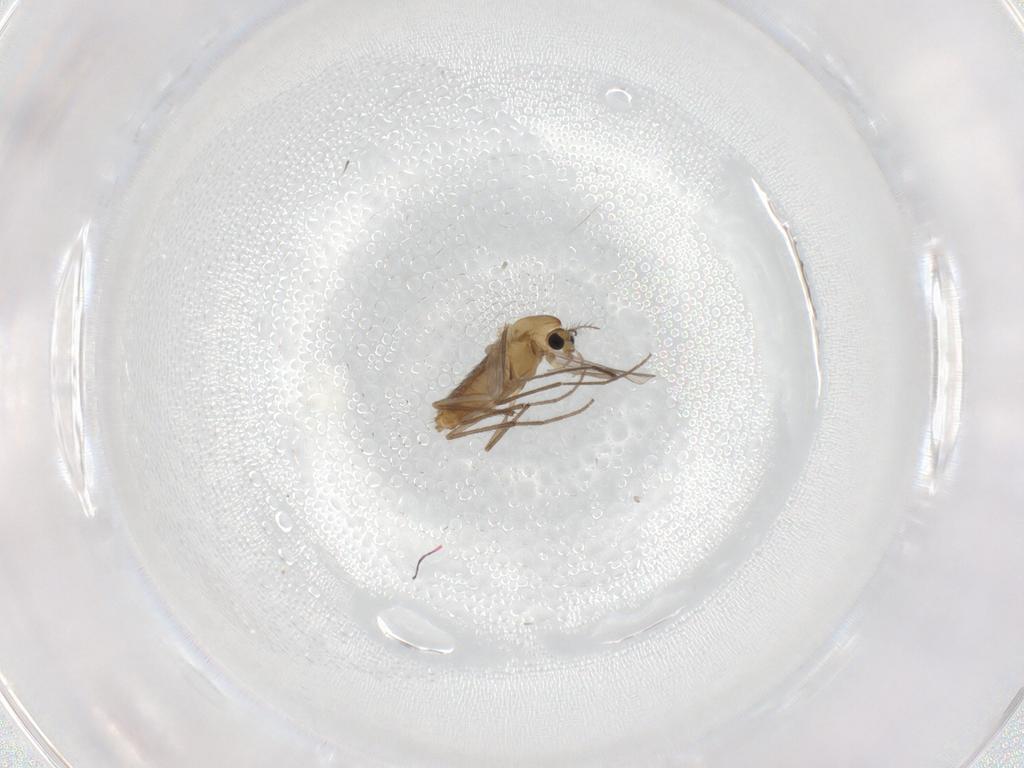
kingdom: Animalia
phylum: Arthropoda
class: Insecta
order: Diptera
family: Chironomidae
